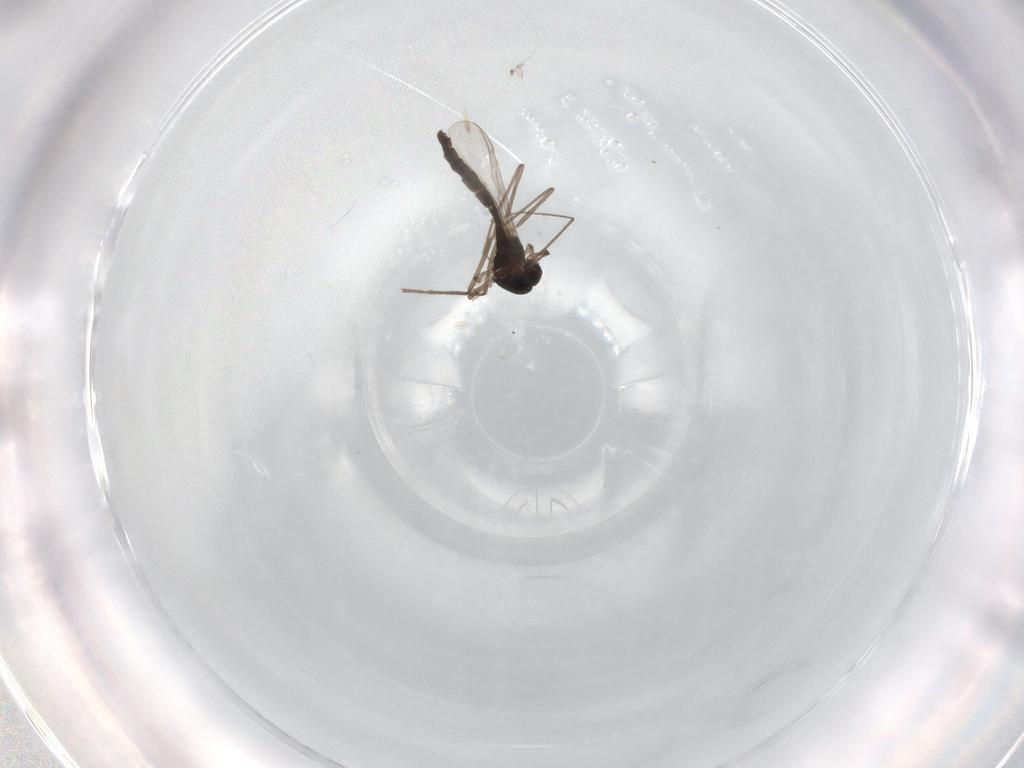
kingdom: Animalia
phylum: Arthropoda
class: Insecta
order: Diptera
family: Chironomidae
